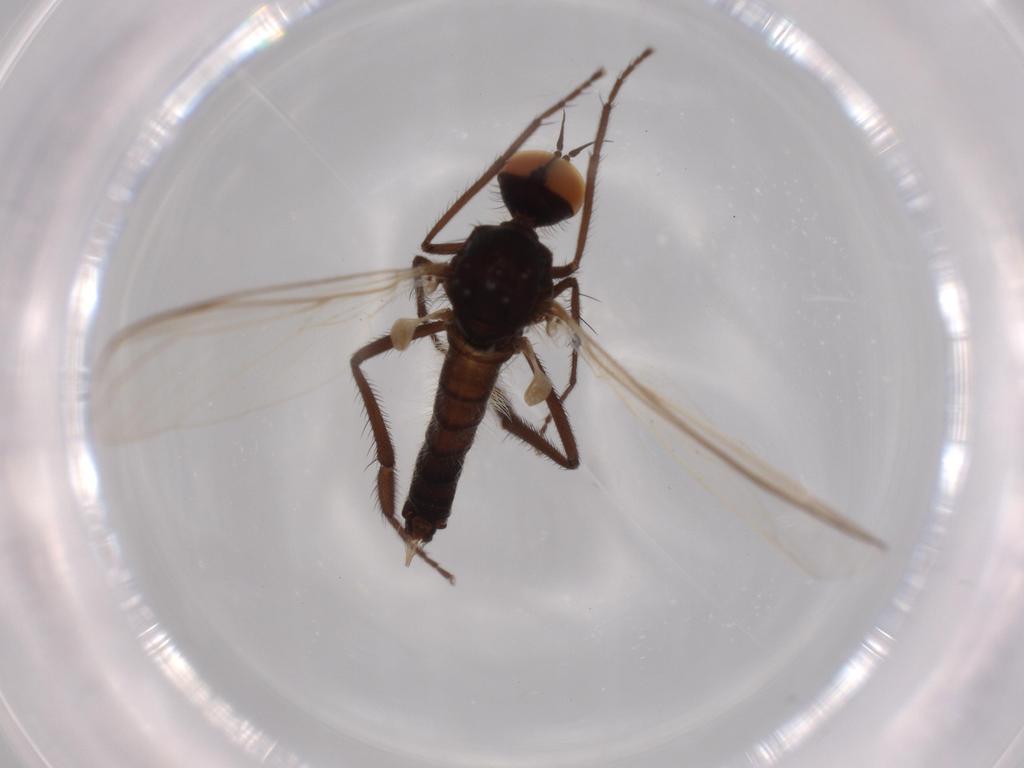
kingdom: Animalia
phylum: Arthropoda
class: Insecta
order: Diptera
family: Empididae
